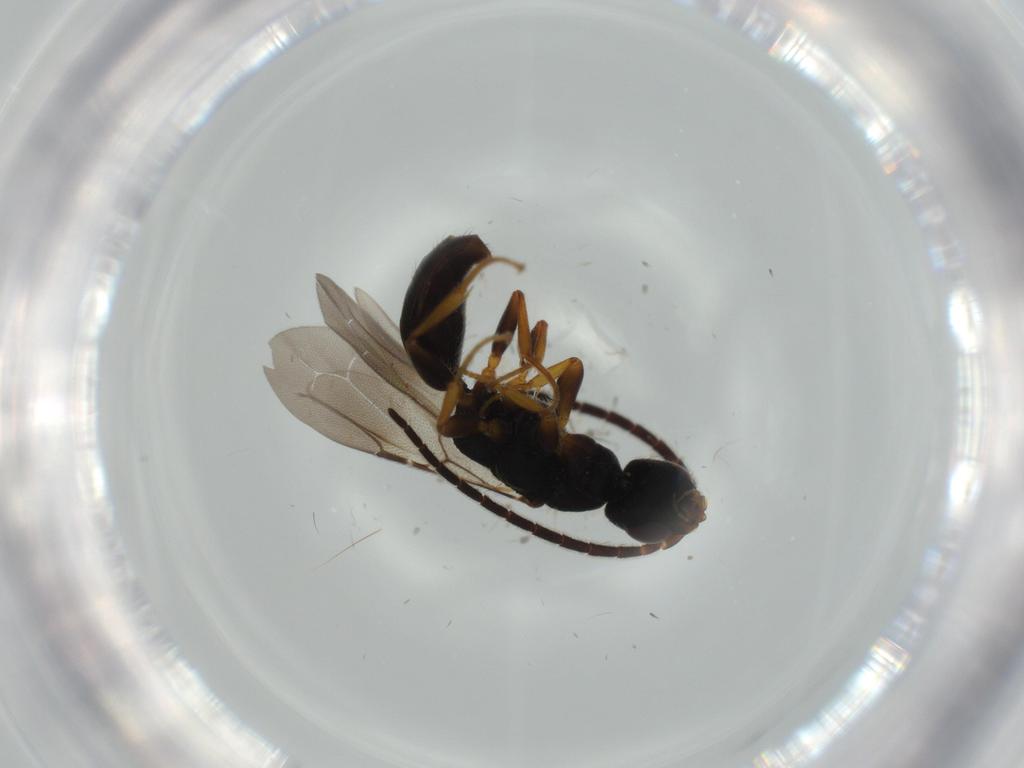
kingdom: Animalia
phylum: Arthropoda
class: Insecta
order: Hymenoptera
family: Bethylidae
